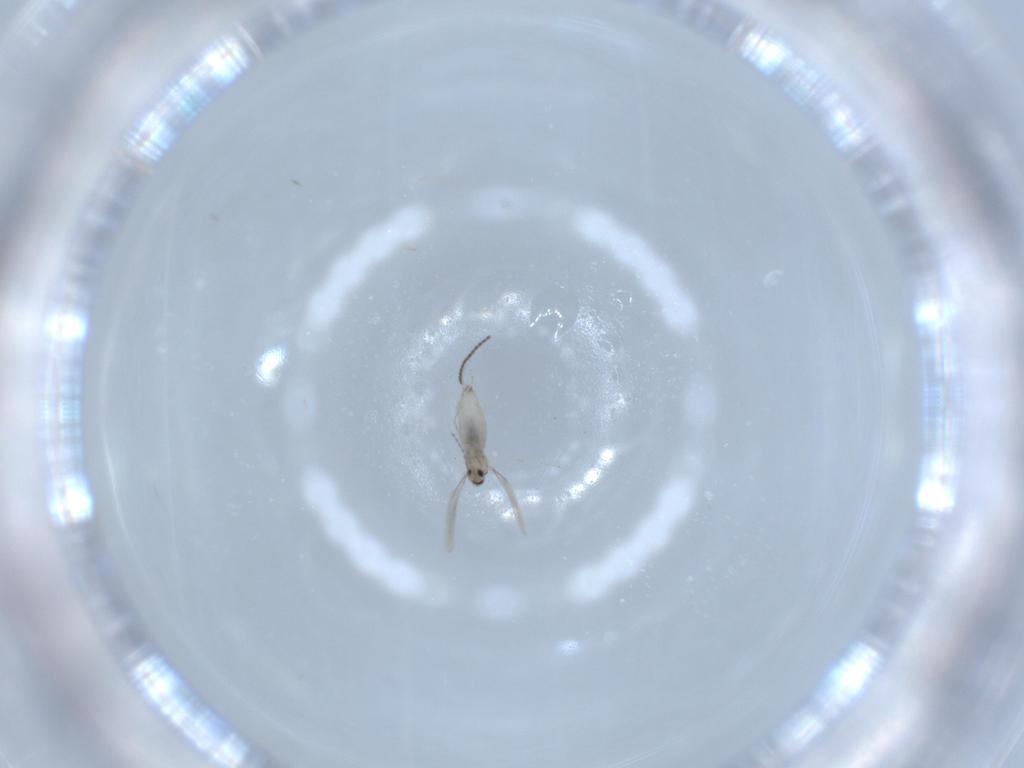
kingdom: Animalia
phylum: Arthropoda
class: Insecta
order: Diptera
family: Cecidomyiidae
